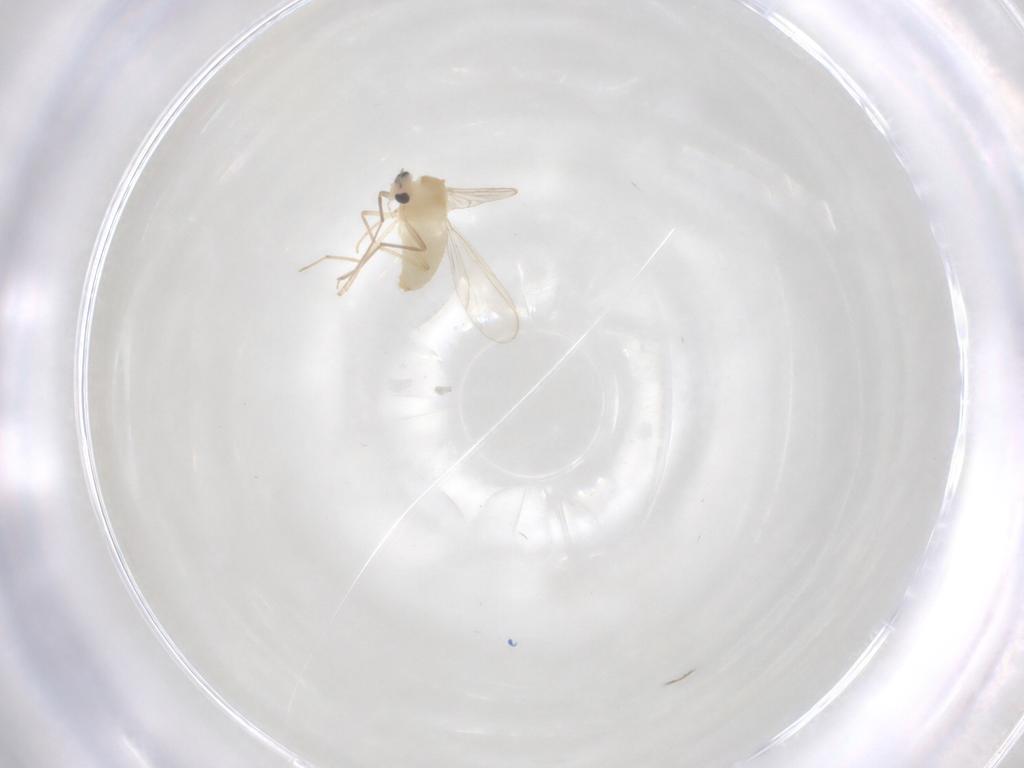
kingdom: Animalia
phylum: Arthropoda
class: Insecta
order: Diptera
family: Chironomidae
